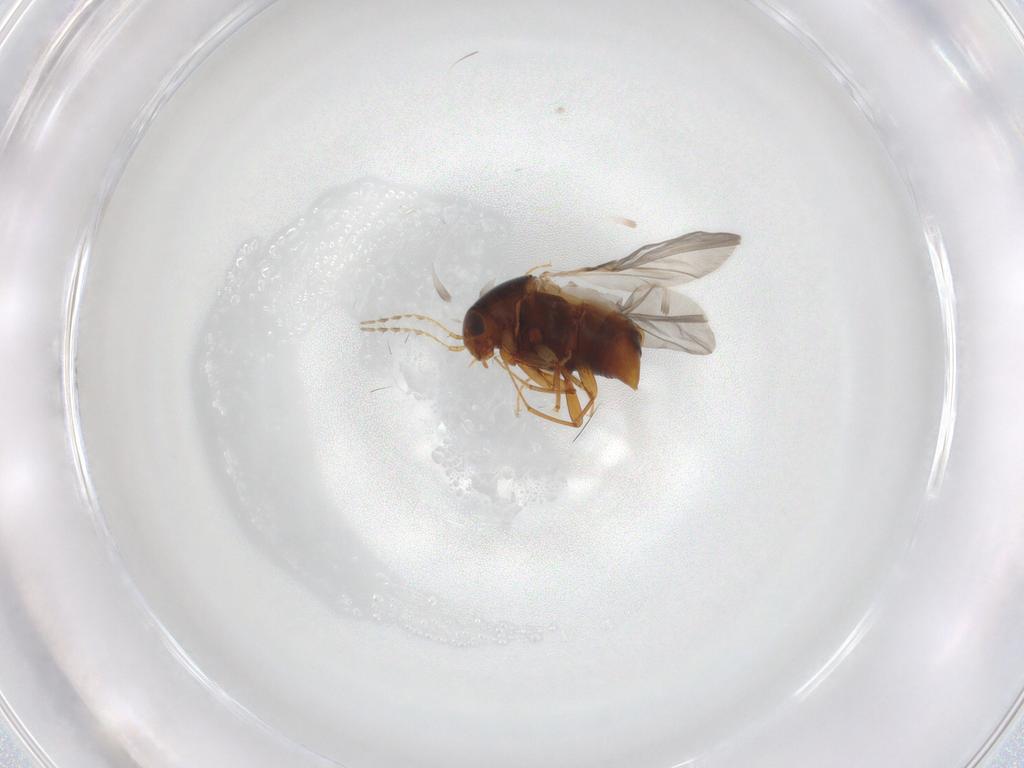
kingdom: Animalia
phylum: Arthropoda
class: Insecta
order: Coleoptera
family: Staphylinidae
